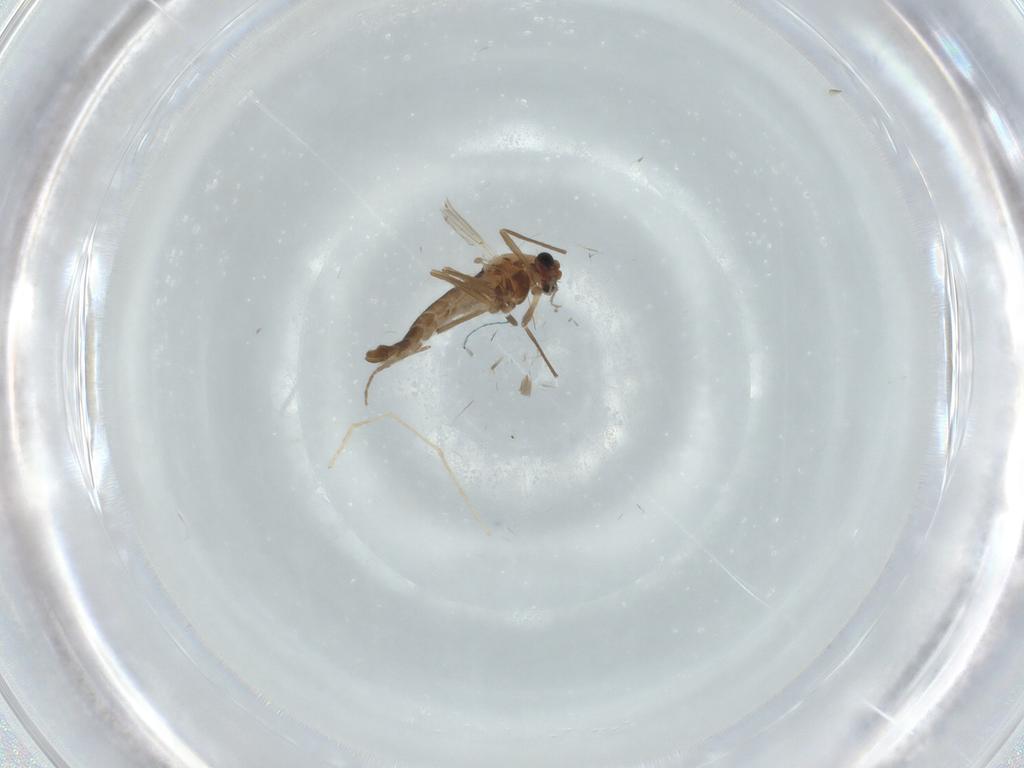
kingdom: Animalia
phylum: Arthropoda
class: Insecta
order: Diptera
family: Chironomidae
